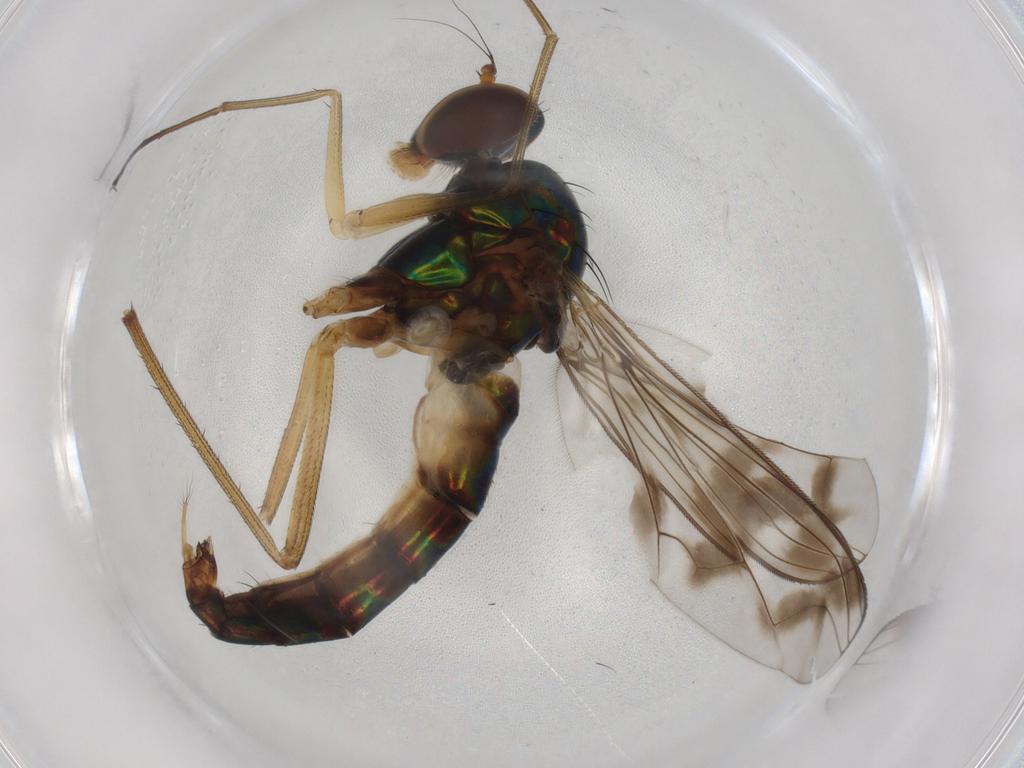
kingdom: Animalia
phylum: Arthropoda
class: Insecta
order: Diptera
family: Dolichopodidae
